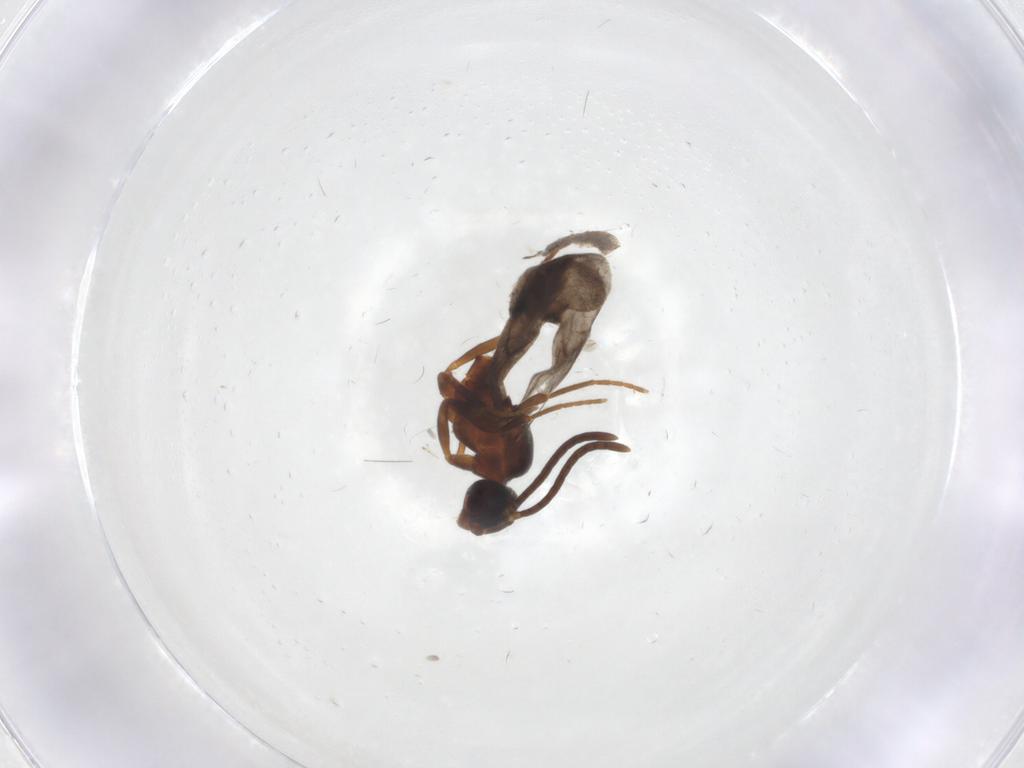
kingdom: Animalia
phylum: Arthropoda
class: Insecta
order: Hymenoptera
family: Formicidae
